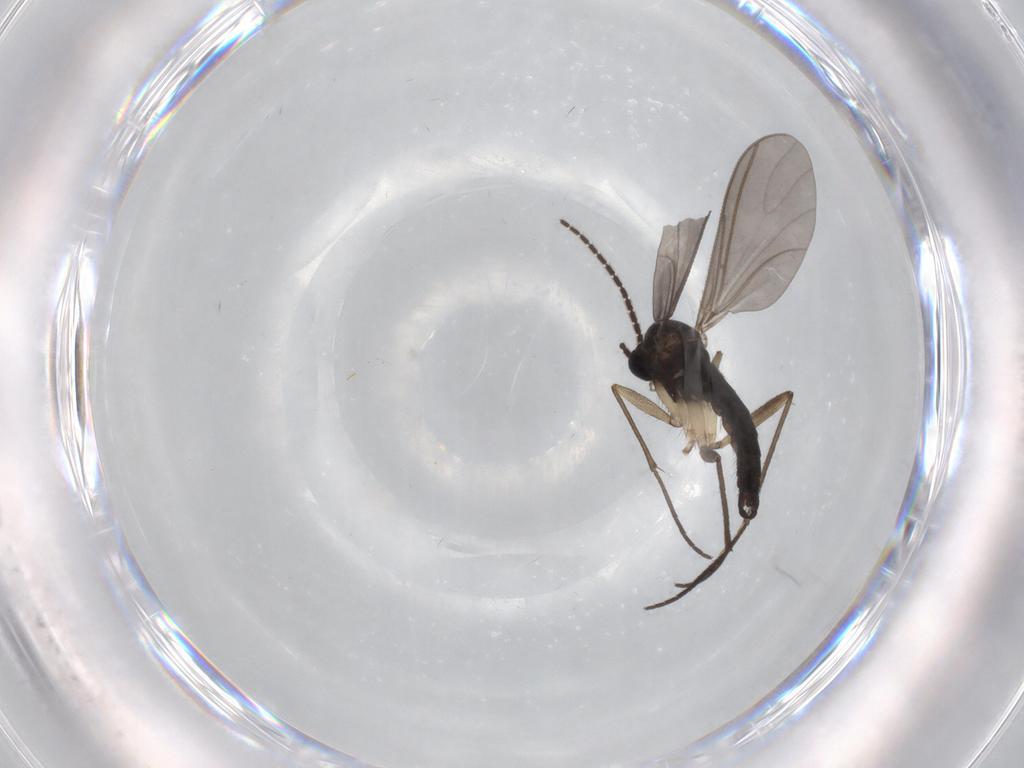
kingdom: Animalia
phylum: Arthropoda
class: Insecta
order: Diptera
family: Sciaridae
